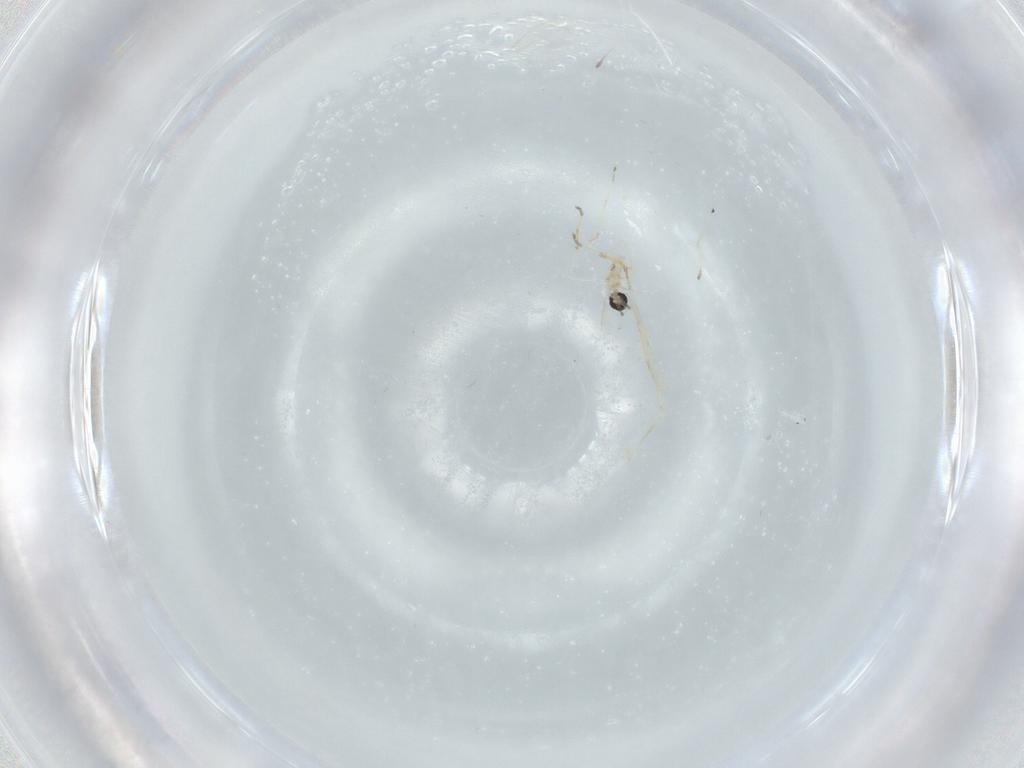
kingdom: Animalia
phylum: Arthropoda
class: Insecta
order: Diptera
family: Cecidomyiidae
